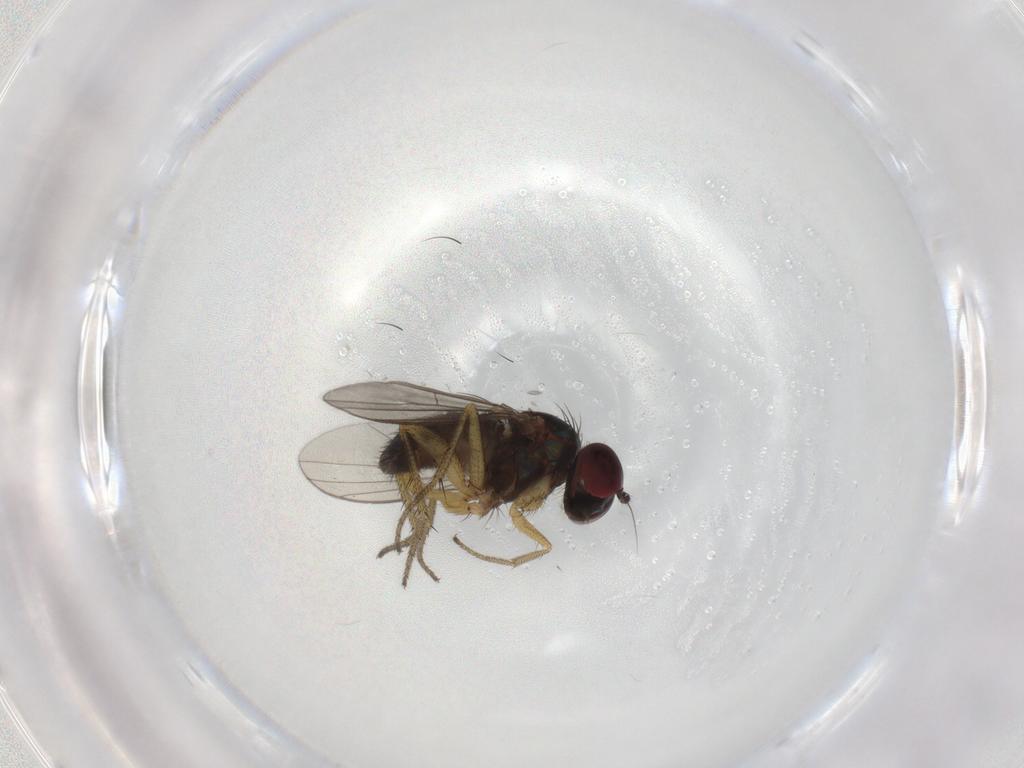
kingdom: Animalia
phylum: Arthropoda
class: Insecta
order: Diptera
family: Dolichopodidae
